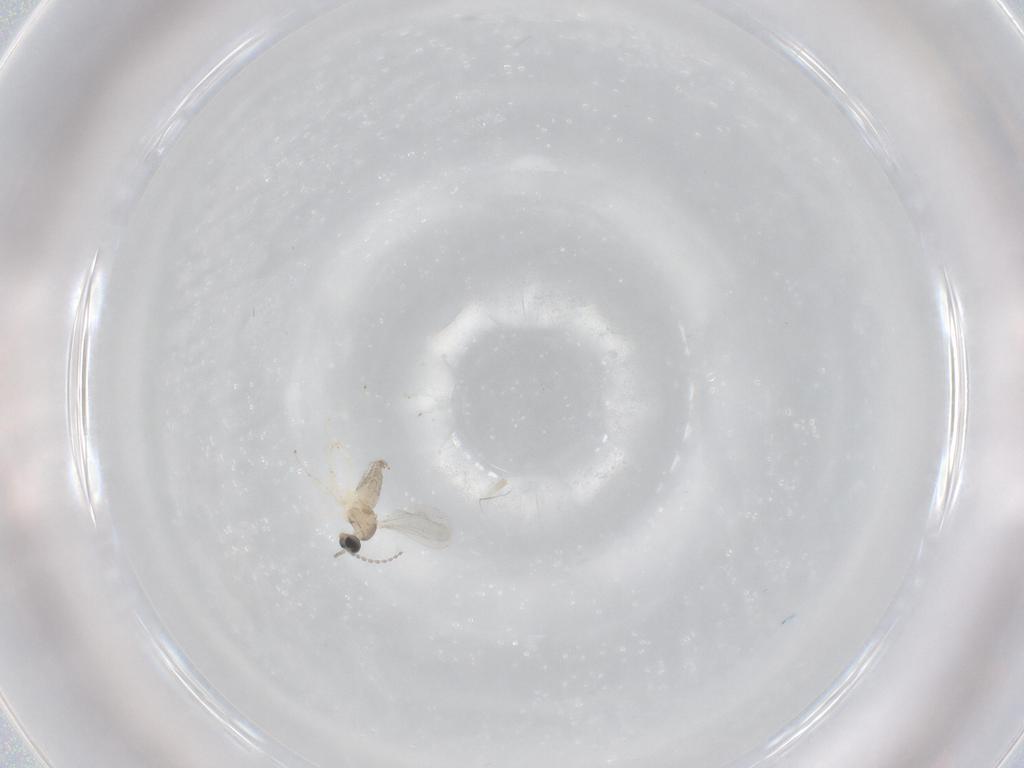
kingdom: Animalia
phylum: Arthropoda
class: Insecta
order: Diptera
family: Cecidomyiidae
